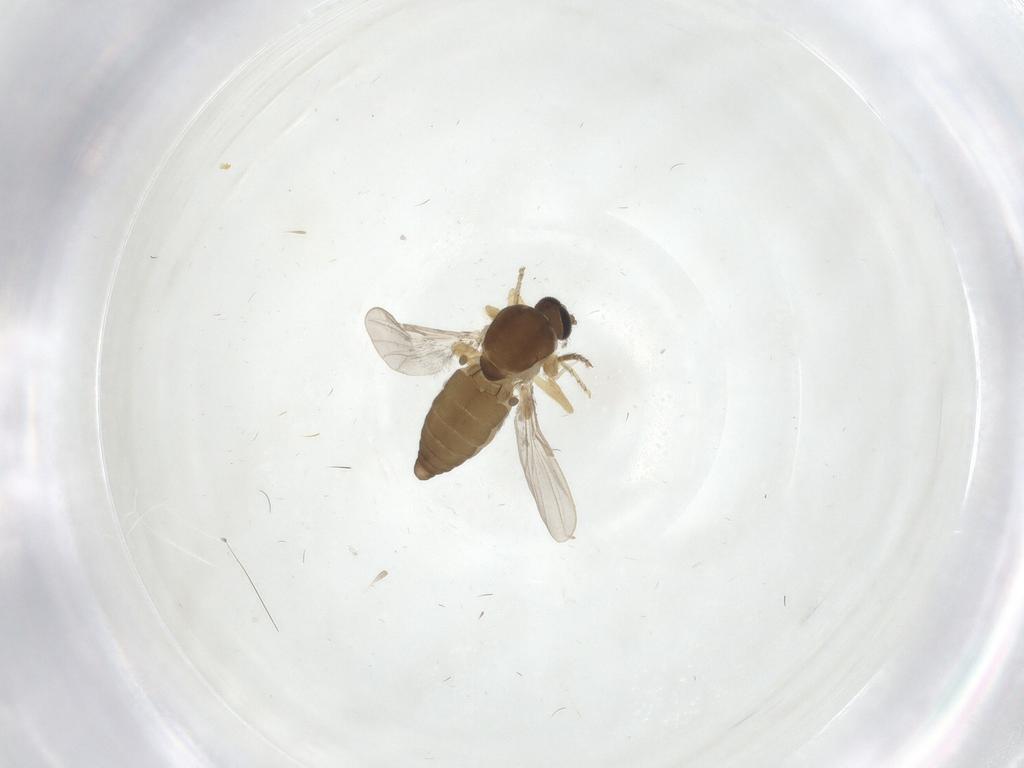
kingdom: Animalia
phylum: Arthropoda
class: Insecta
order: Diptera
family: Ceratopogonidae
